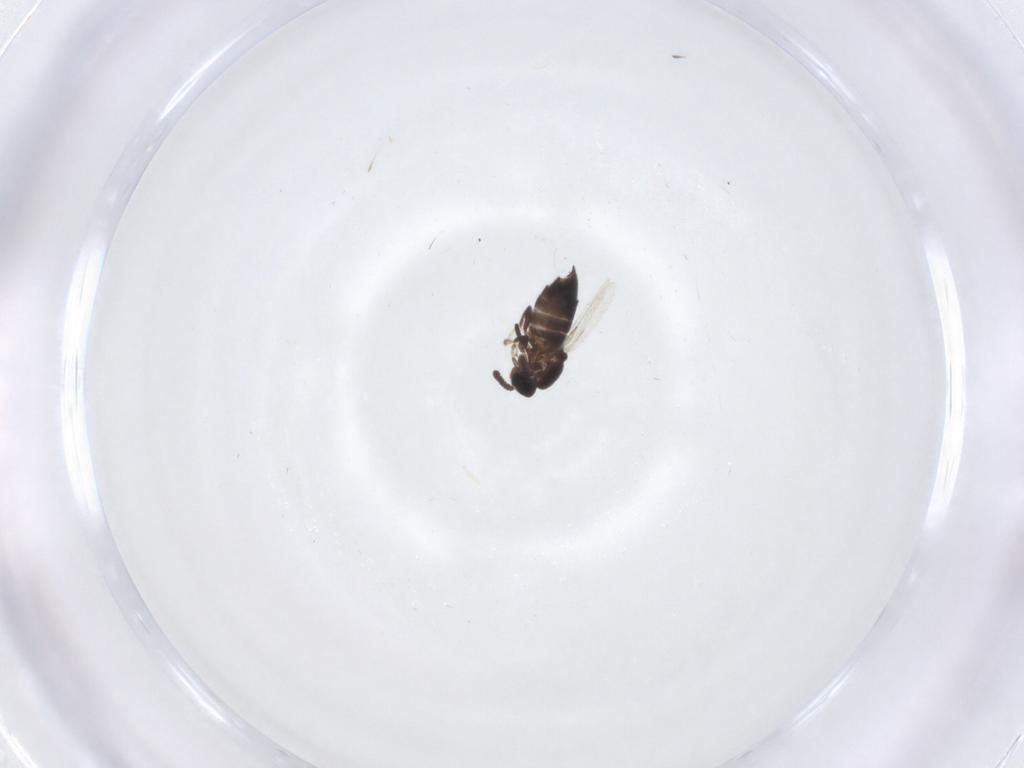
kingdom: Animalia
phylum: Arthropoda
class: Insecta
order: Diptera
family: Scatopsidae
